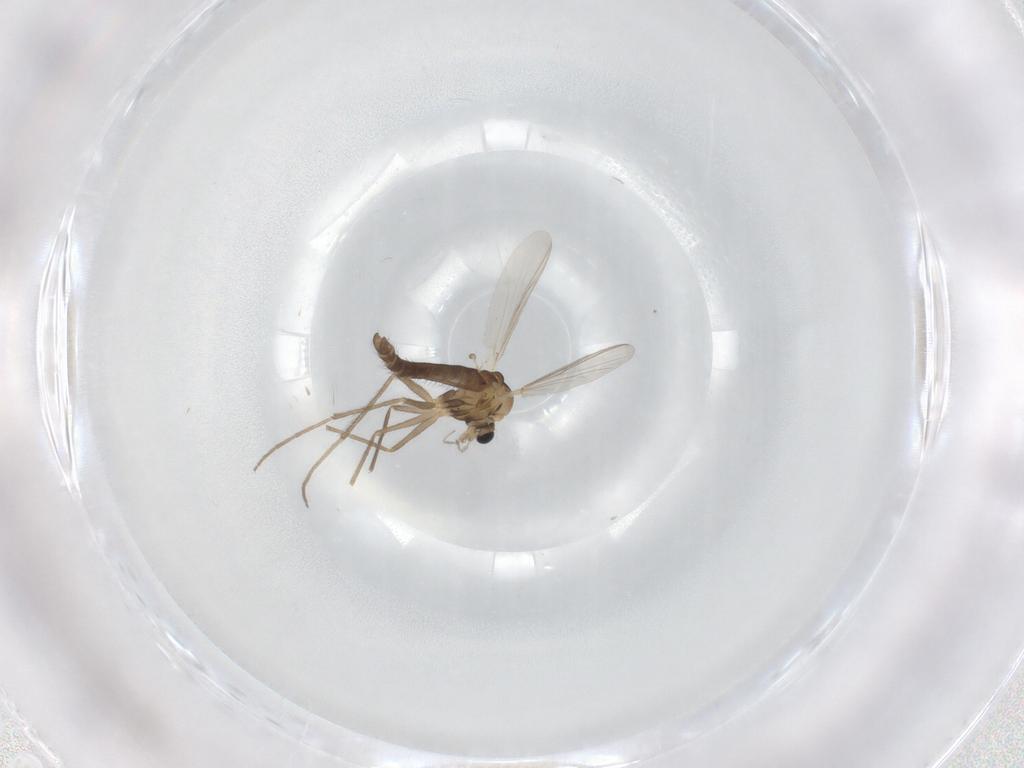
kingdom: Animalia
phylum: Arthropoda
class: Insecta
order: Diptera
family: Chironomidae
